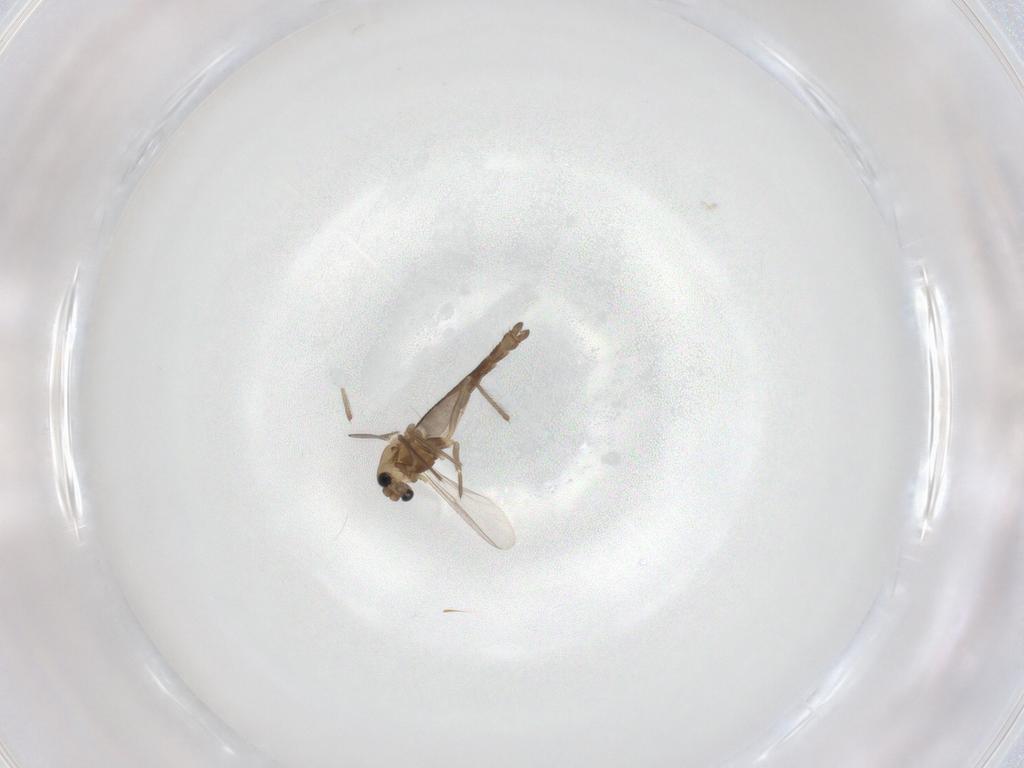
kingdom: Animalia
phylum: Arthropoda
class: Insecta
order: Diptera
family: Chironomidae
